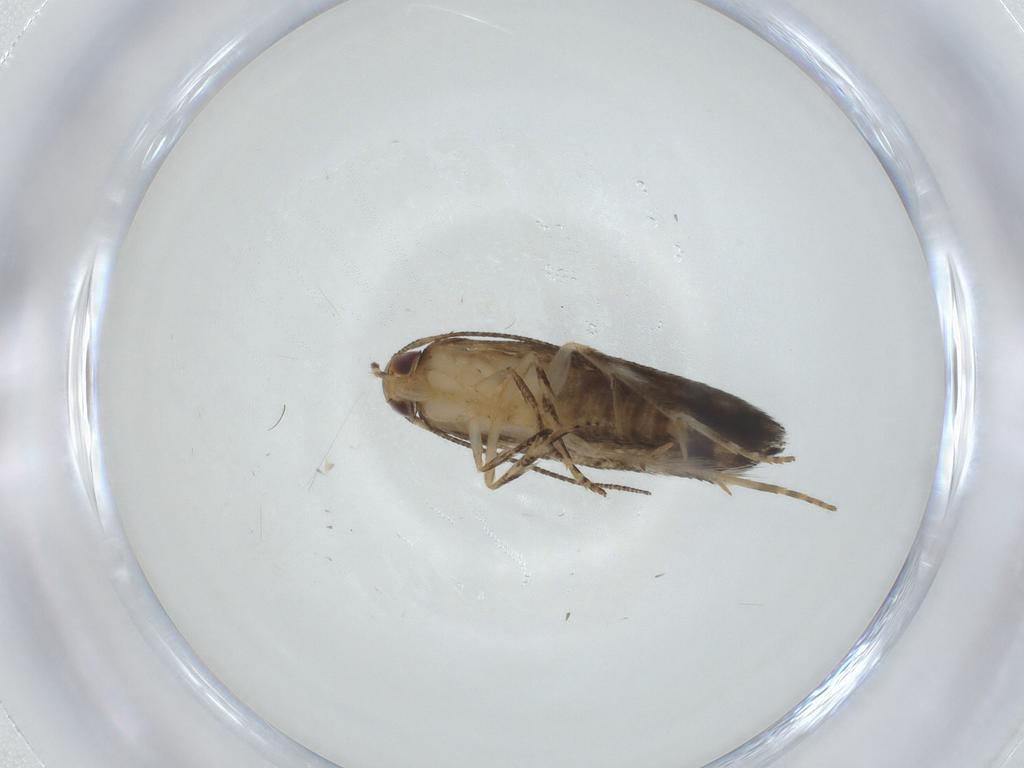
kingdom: Animalia
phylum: Arthropoda
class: Insecta
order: Lepidoptera
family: Elachistidae
